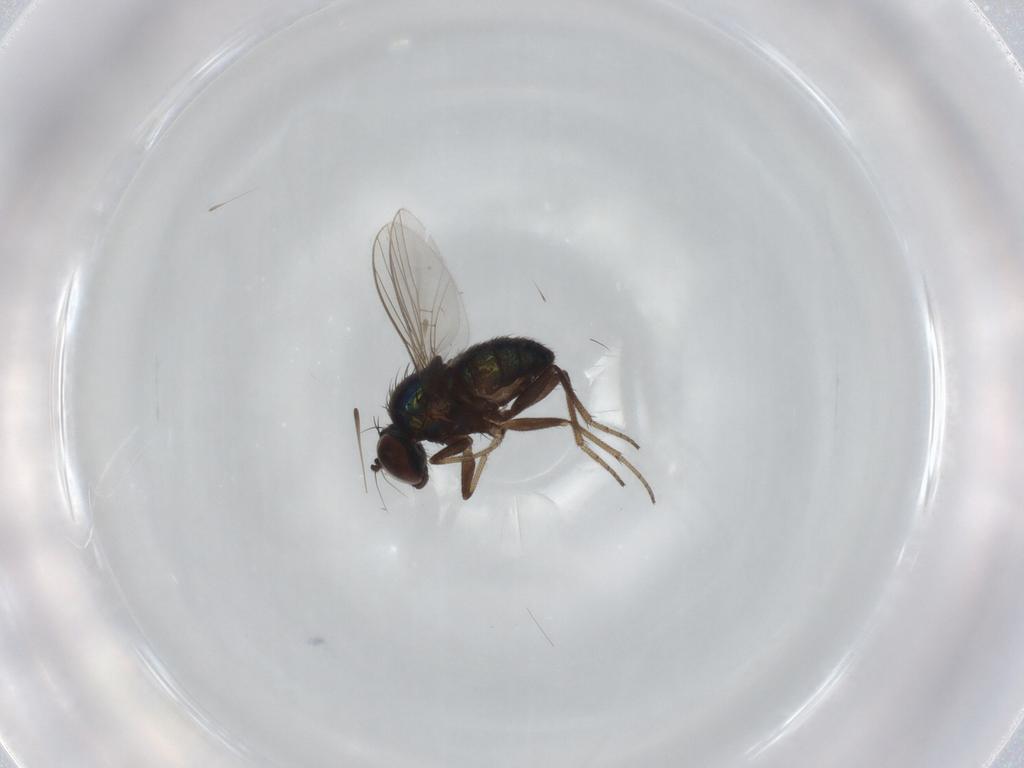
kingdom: Animalia
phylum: Arthropoda
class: Insecta
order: Diptera
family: Dolichopodidae
